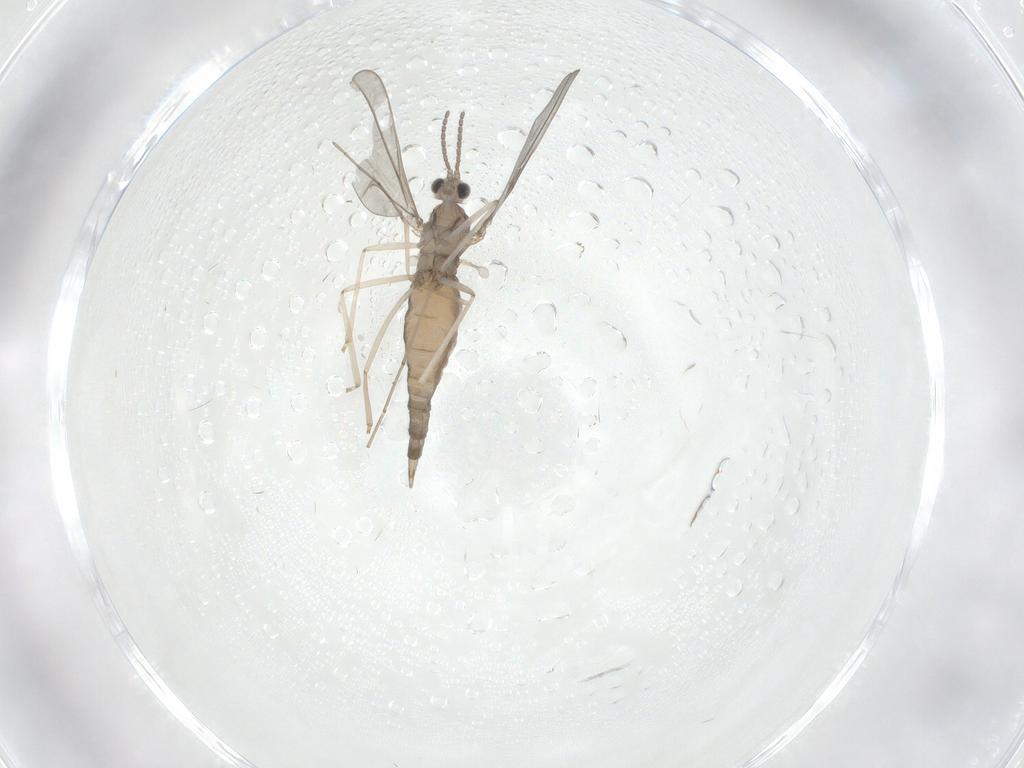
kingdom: Animalia
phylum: Arthropoda
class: Insecta
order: Diptera
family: Cecidomyiidae
